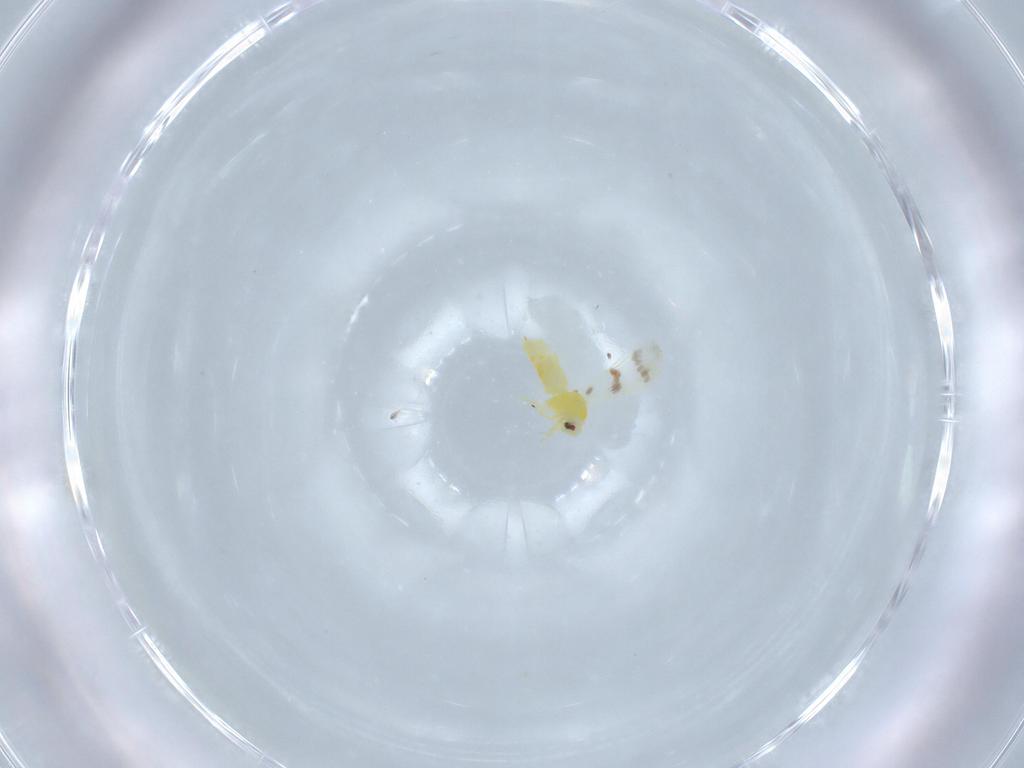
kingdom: Animalia
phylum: Arthropoda
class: Insecta
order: Hemiptera
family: Aleyrodidae
